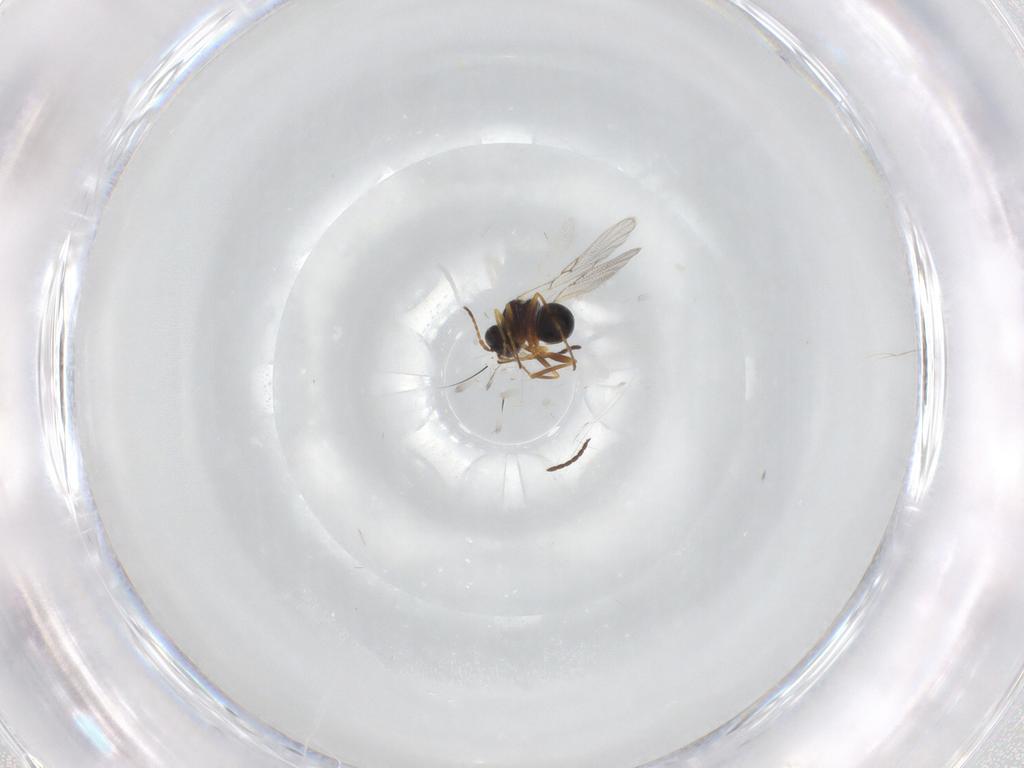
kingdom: Animalia
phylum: Arthropoda
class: Insecta
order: Hymenoptera
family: Figitidae
